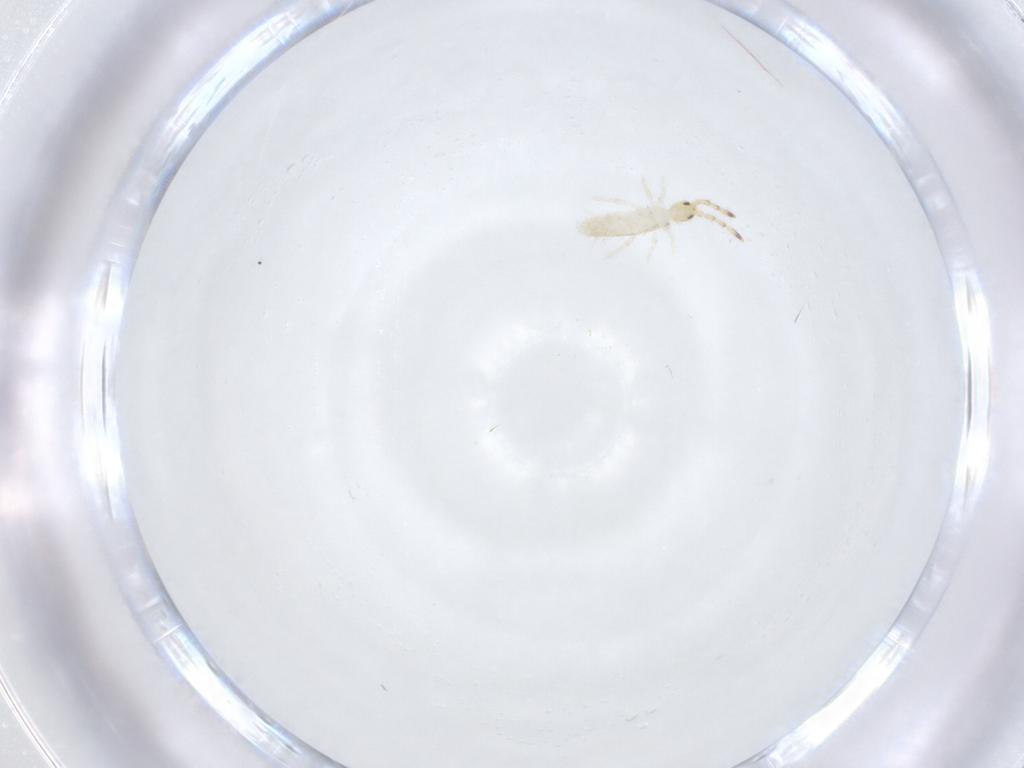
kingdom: Animalia
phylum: Arthropoda
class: Collembola
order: Entomobryomorpha
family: Entomobryidae
